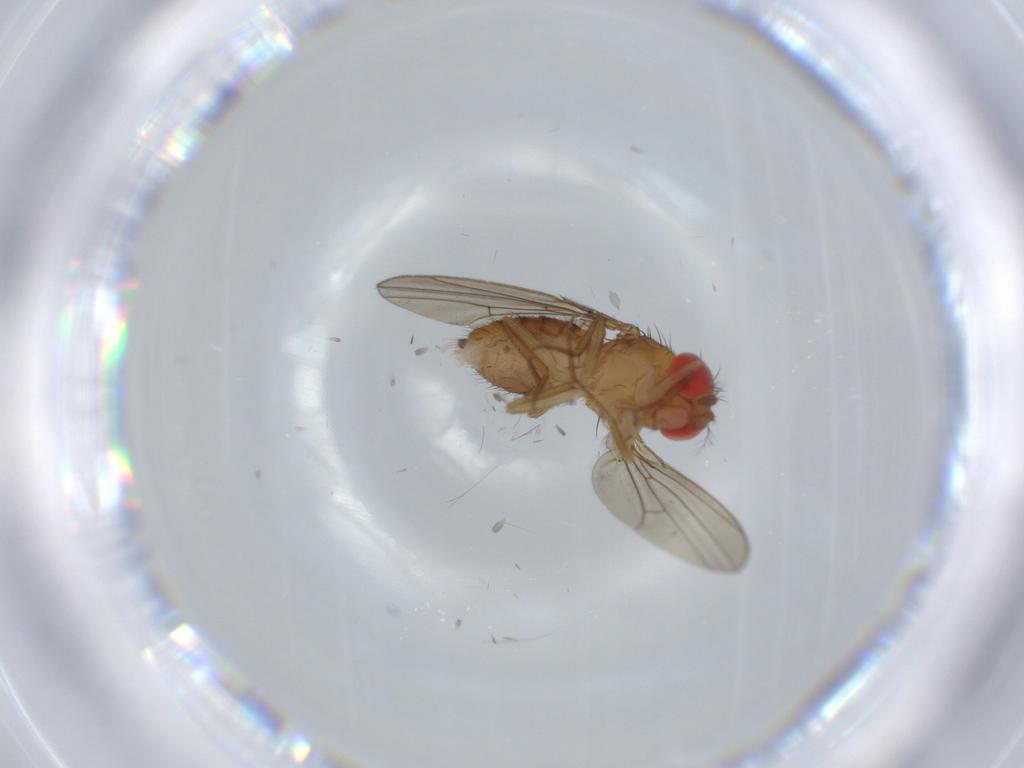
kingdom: Animalia
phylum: Arthropoda
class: Insecta
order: Diptera
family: Drosophilidae
